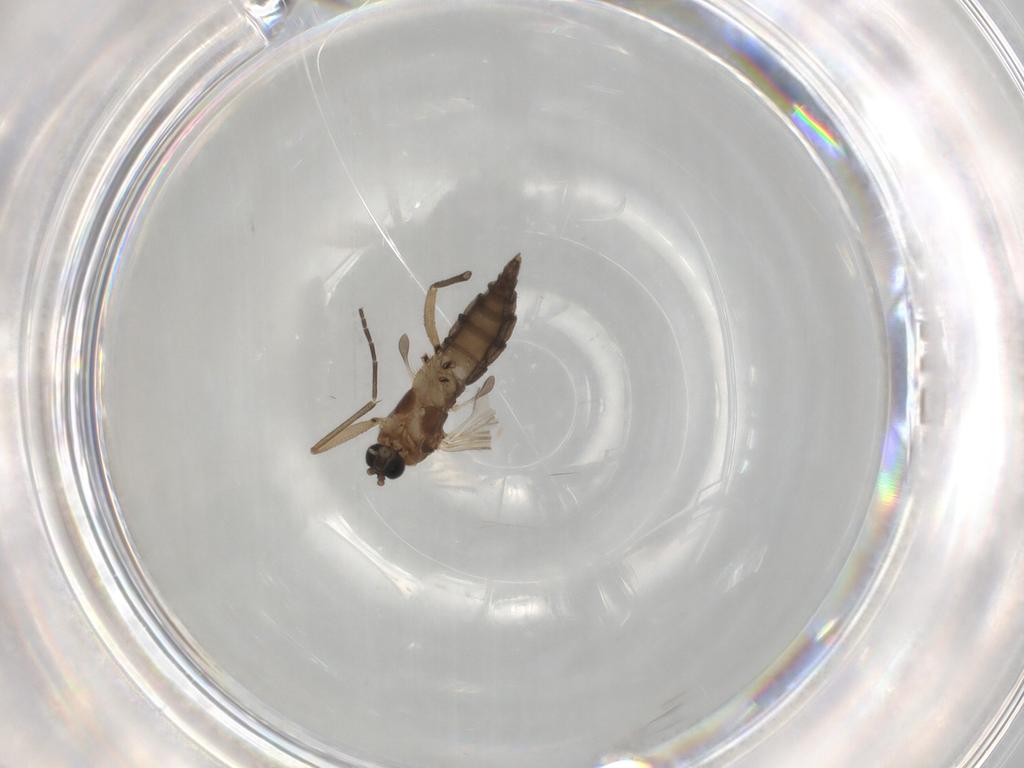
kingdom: Animalia
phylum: Arthropoda
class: Insecta
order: Diptera
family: Sciaridae
